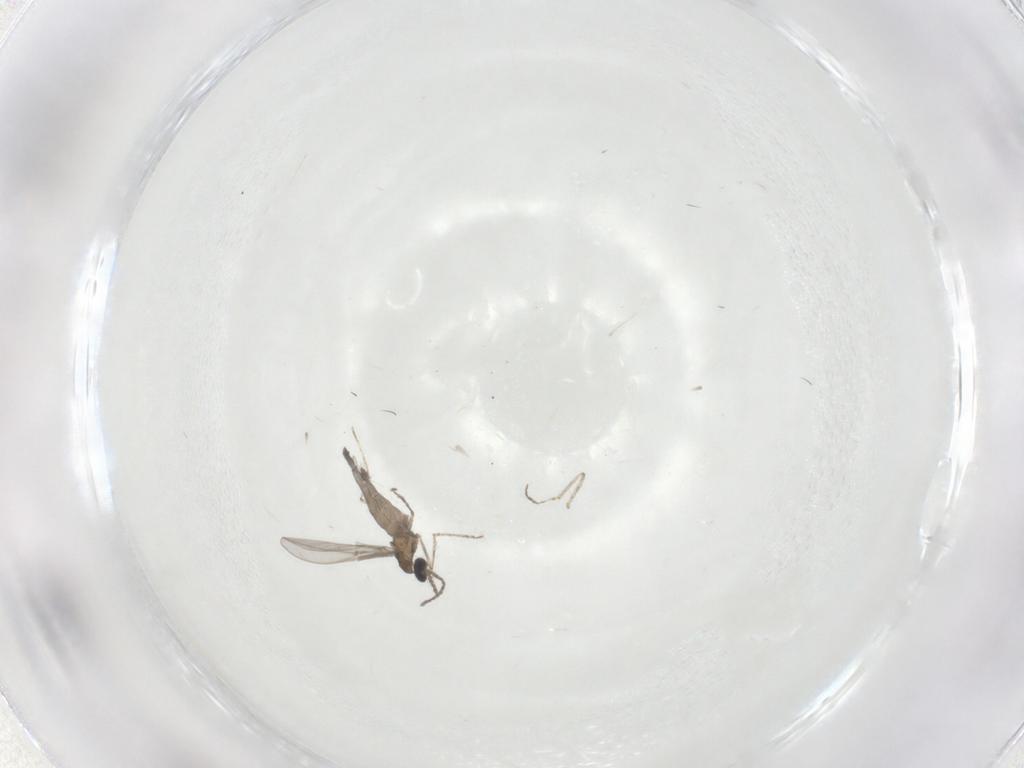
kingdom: Animalia
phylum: Arthropoda
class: Insecta
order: Diptera
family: Cecidomyiidae
